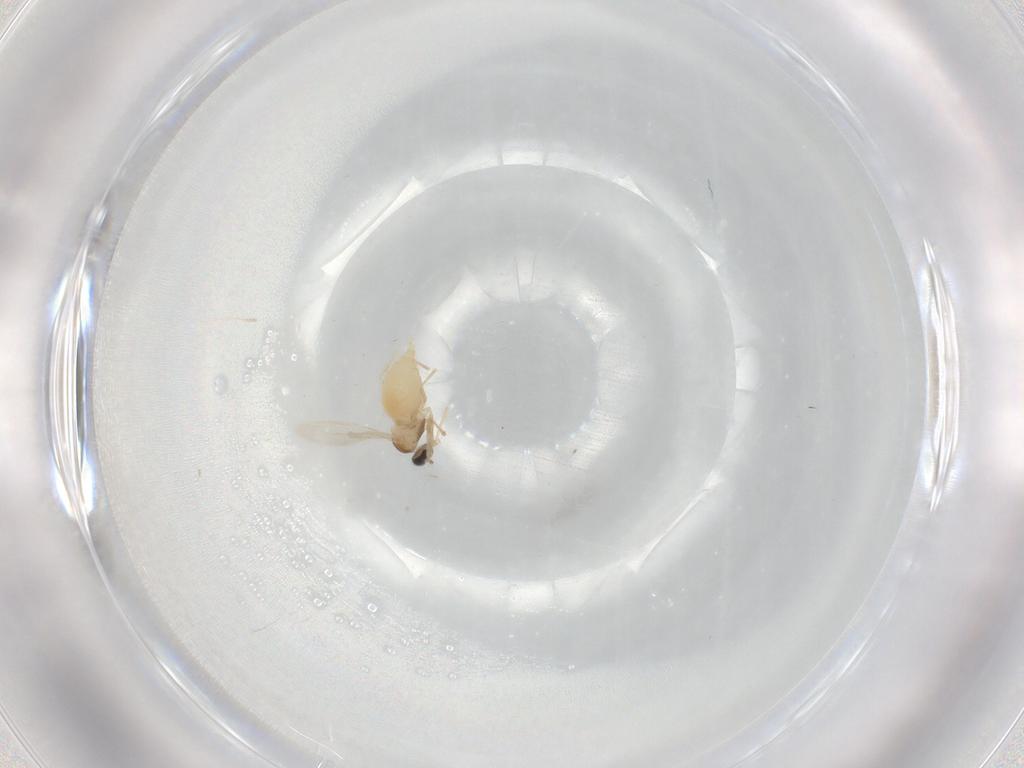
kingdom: Animalia
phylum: Arthropoda
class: Insecta
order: Diptera
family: Cecidomyiidae
